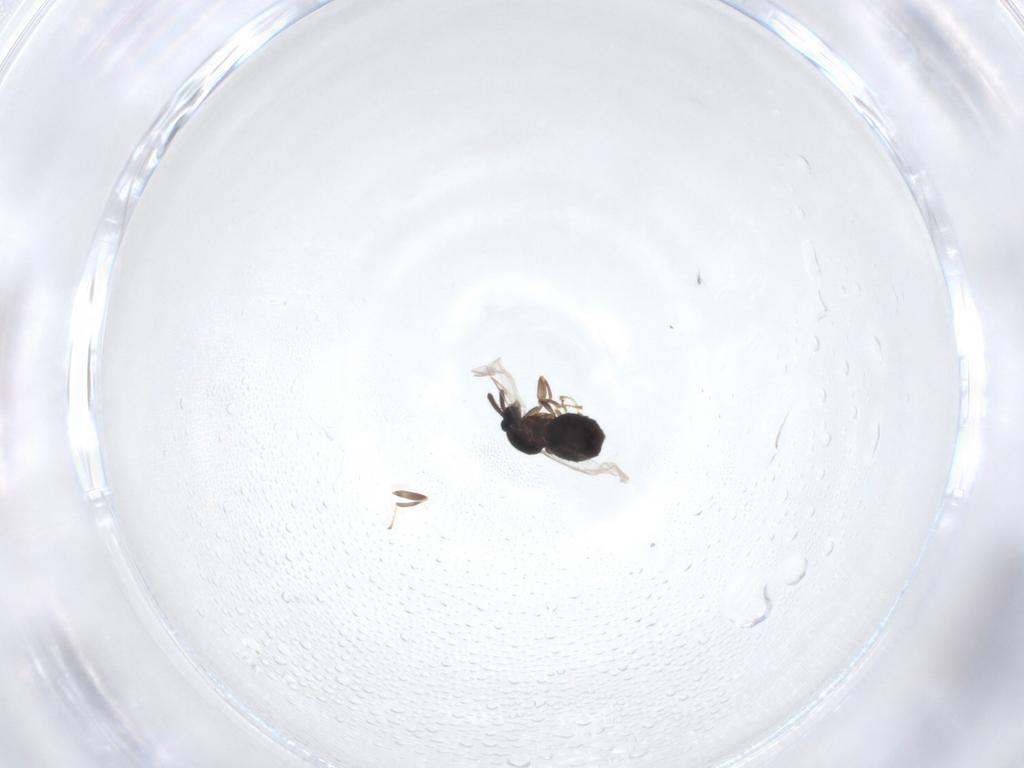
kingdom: Animalia
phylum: Arthropoda
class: Insecta
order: Diptera
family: Scatopsidae
